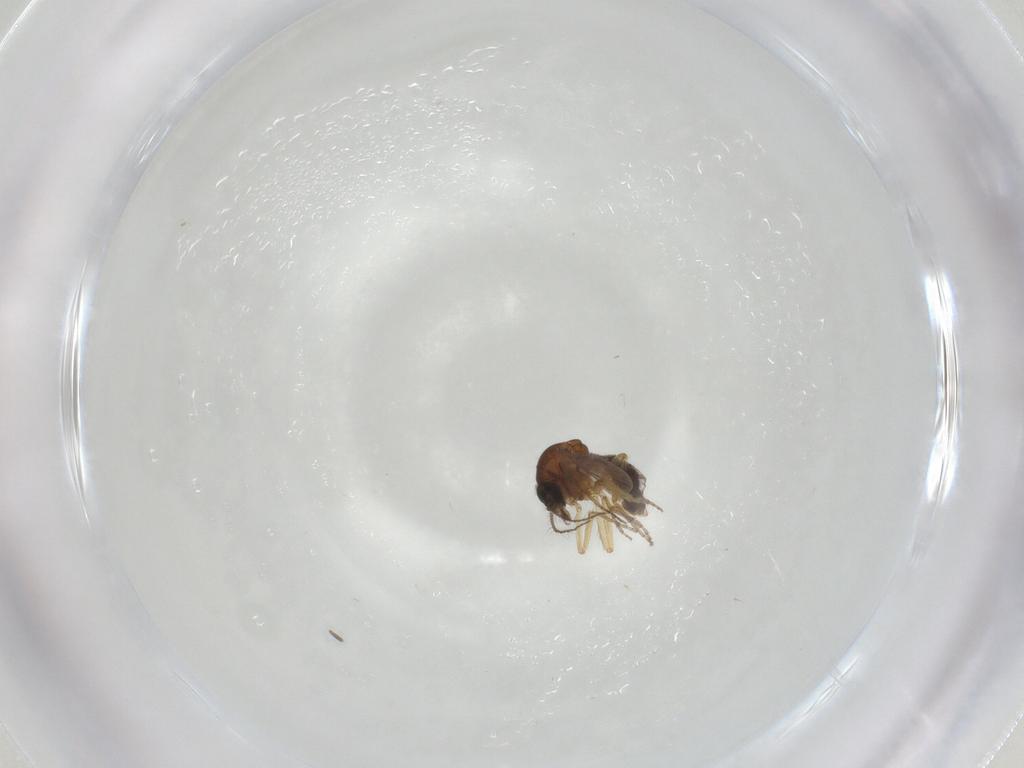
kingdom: Animalia
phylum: Arthropoda
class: Insecta
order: Diptera
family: Ceratopogonidae
